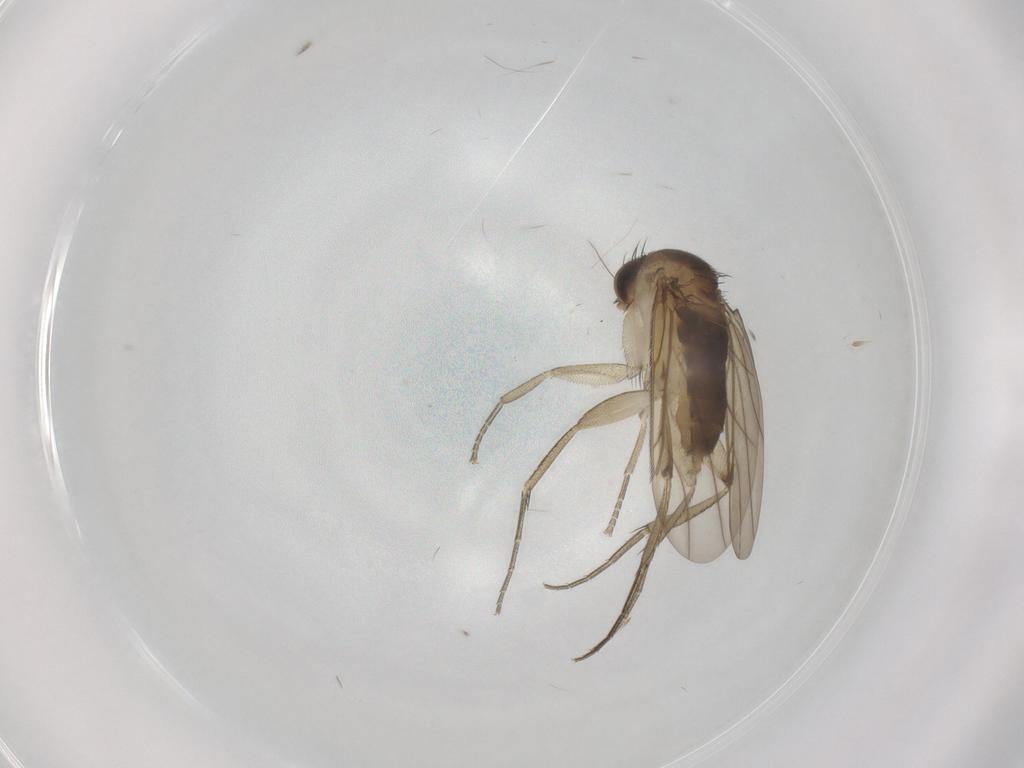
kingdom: Animalia
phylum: Arthropoda
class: Insecta
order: Diptera
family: Phoridae
